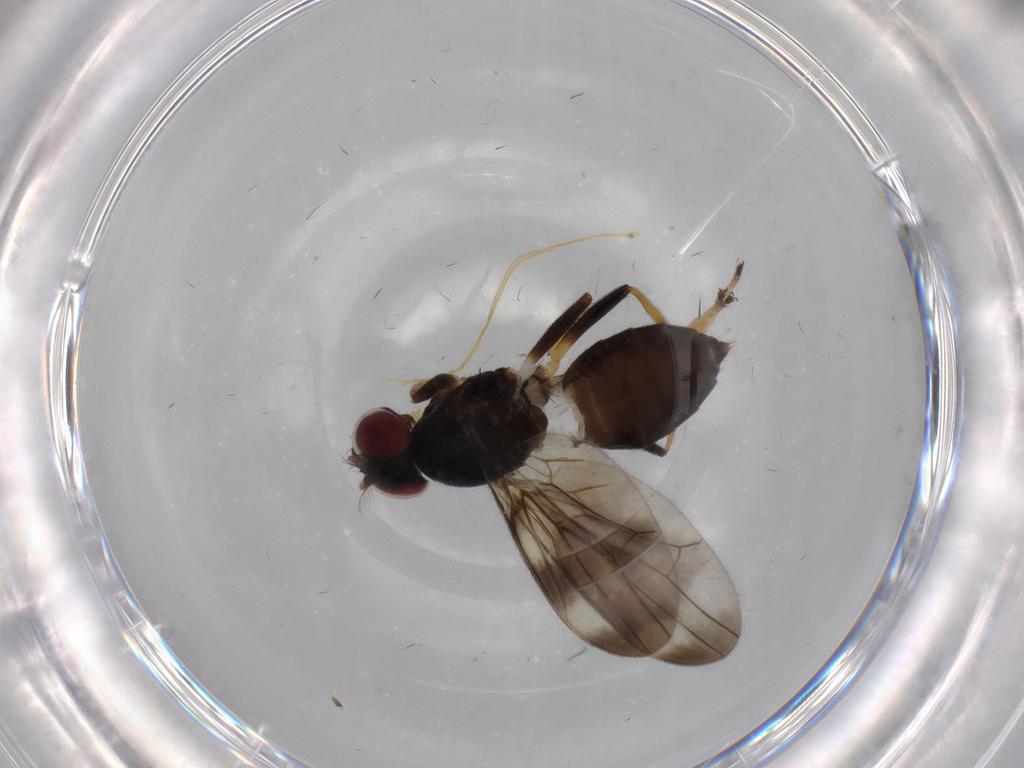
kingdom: Animalia
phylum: Arthropoda
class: Insecta
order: Diptera
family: Periscelididae
